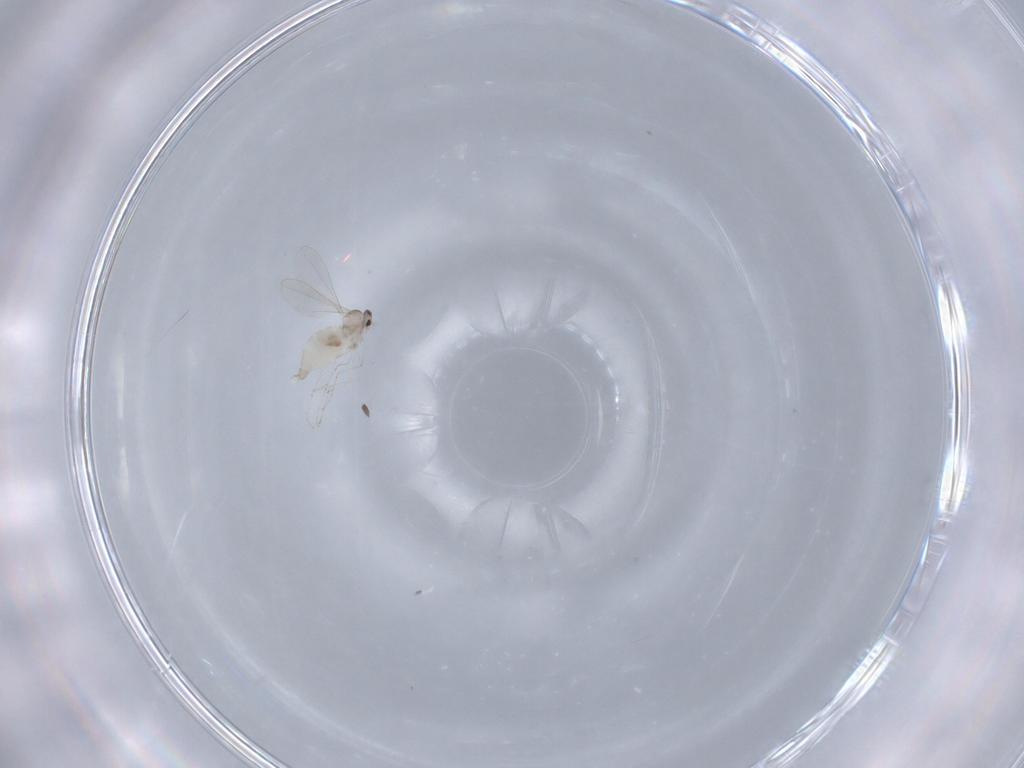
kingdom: Animalia
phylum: Arthropoda
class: Insecta
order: Diptera
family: Cecidomyiidae
